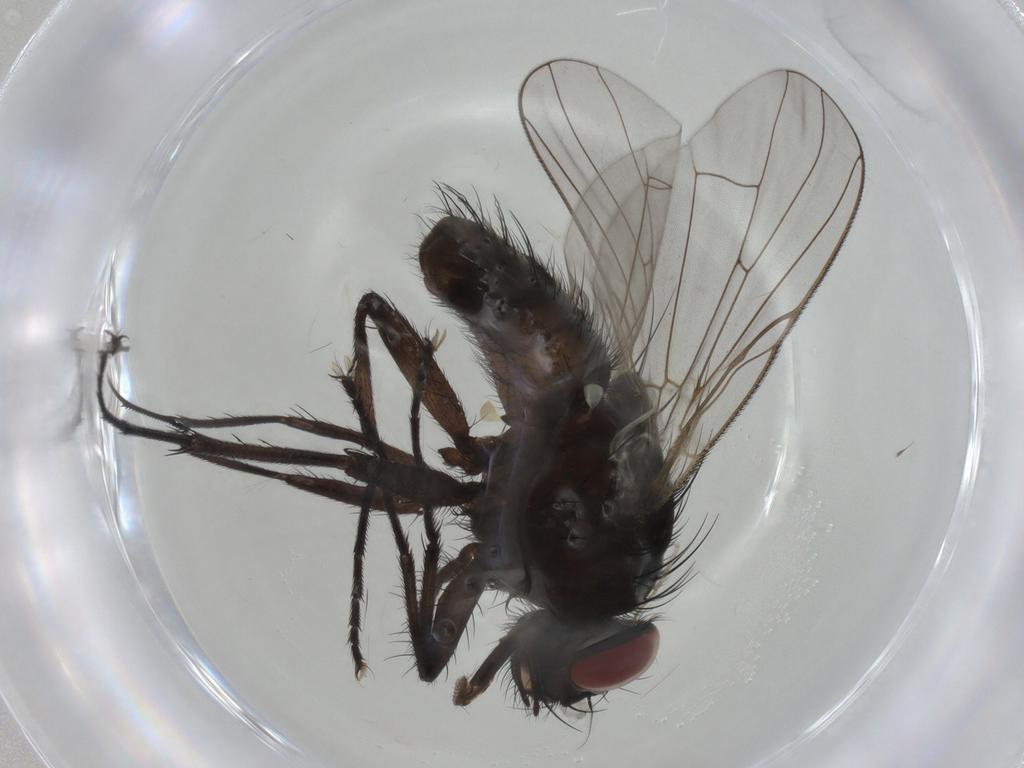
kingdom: Animalia
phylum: Arthropoda
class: Insecta
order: Diptera
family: Muscidae
